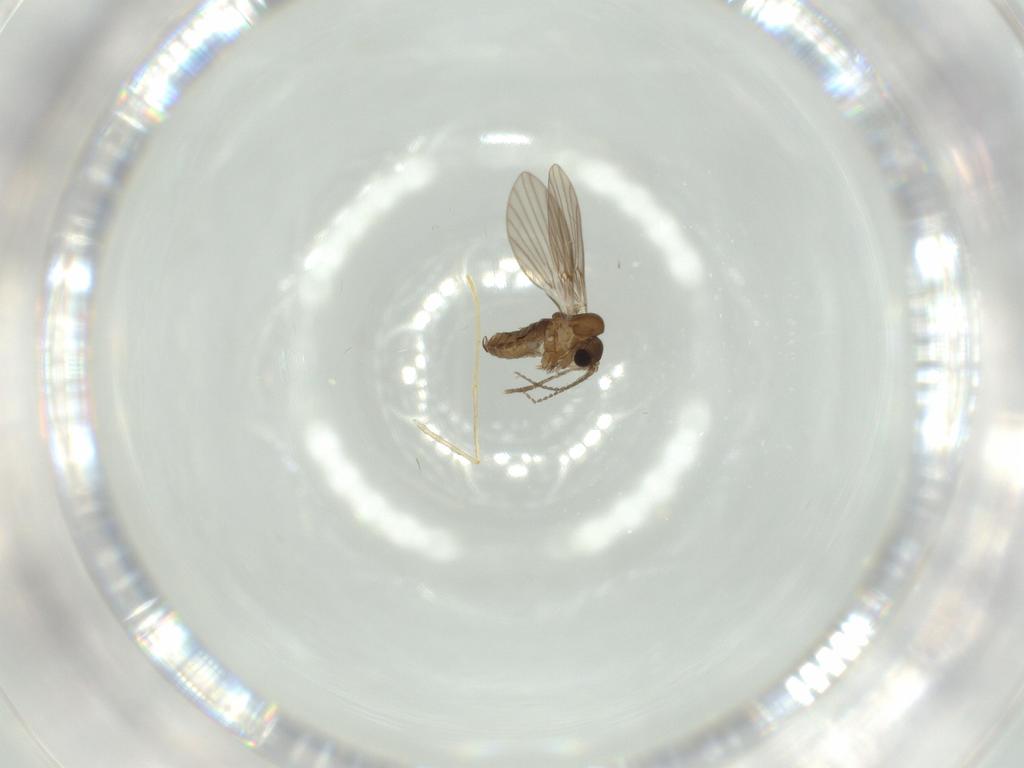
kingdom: Animalia
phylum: Arthropoda
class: Insecta
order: Diptera
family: Psychodidae
